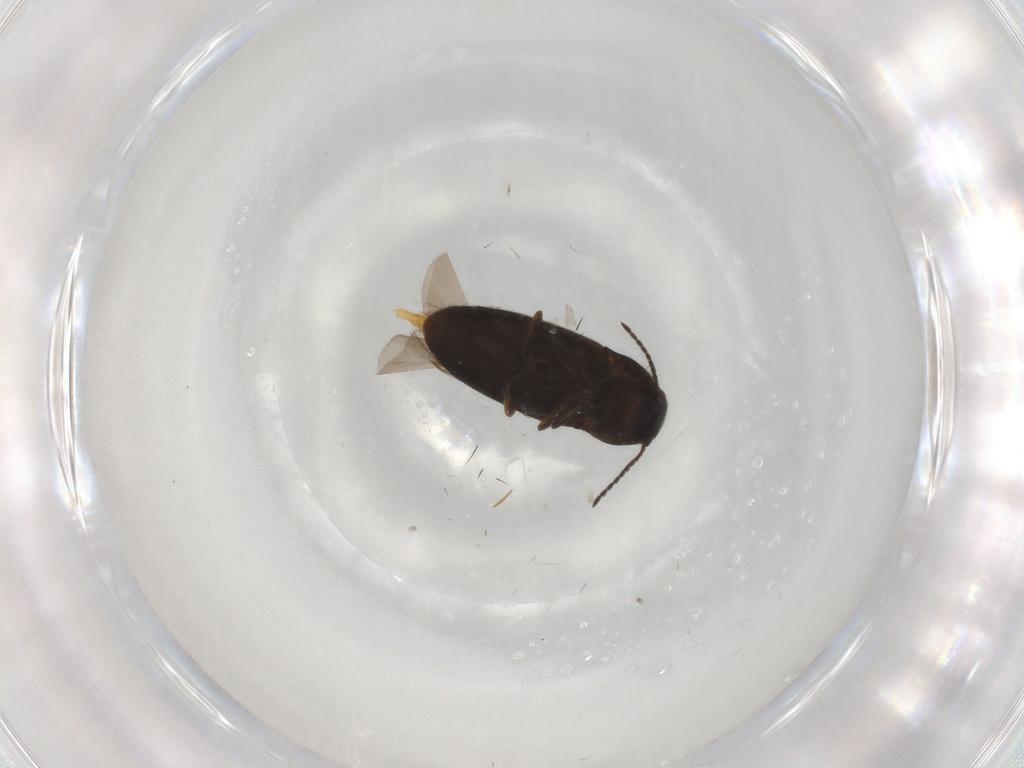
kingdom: Animalia
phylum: Arthropoda
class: Insecta
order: Coleoptera
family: Elateridae
